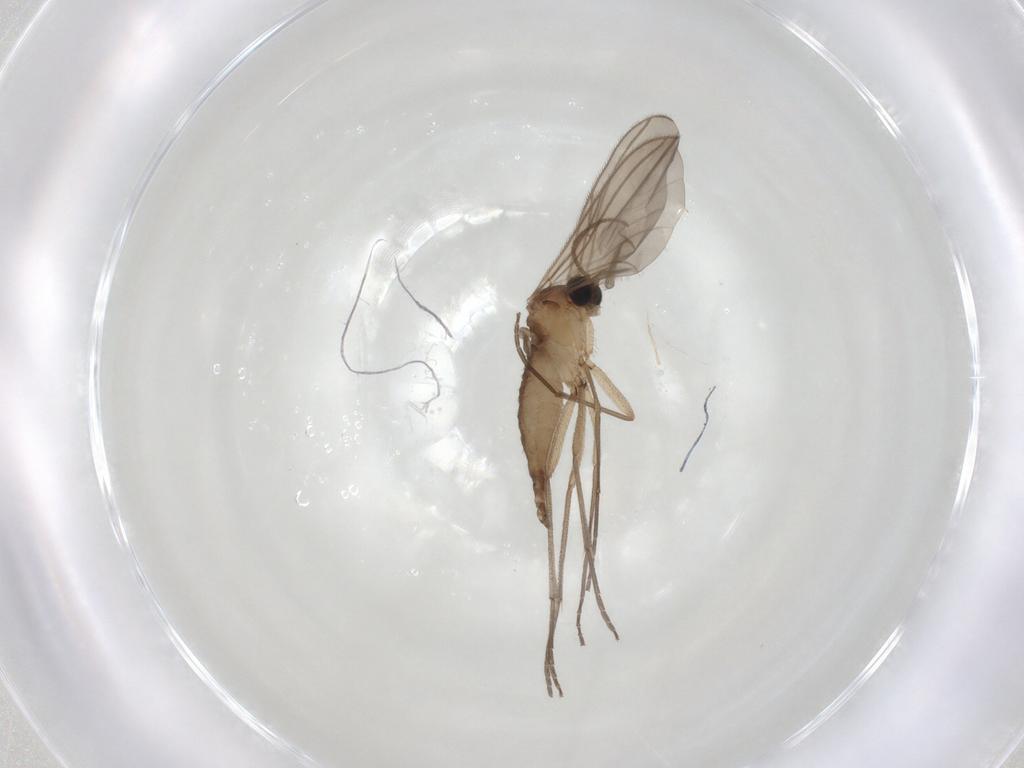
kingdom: Animalia
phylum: Arthropoda
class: Insecta
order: Diptera
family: Sciaridae
